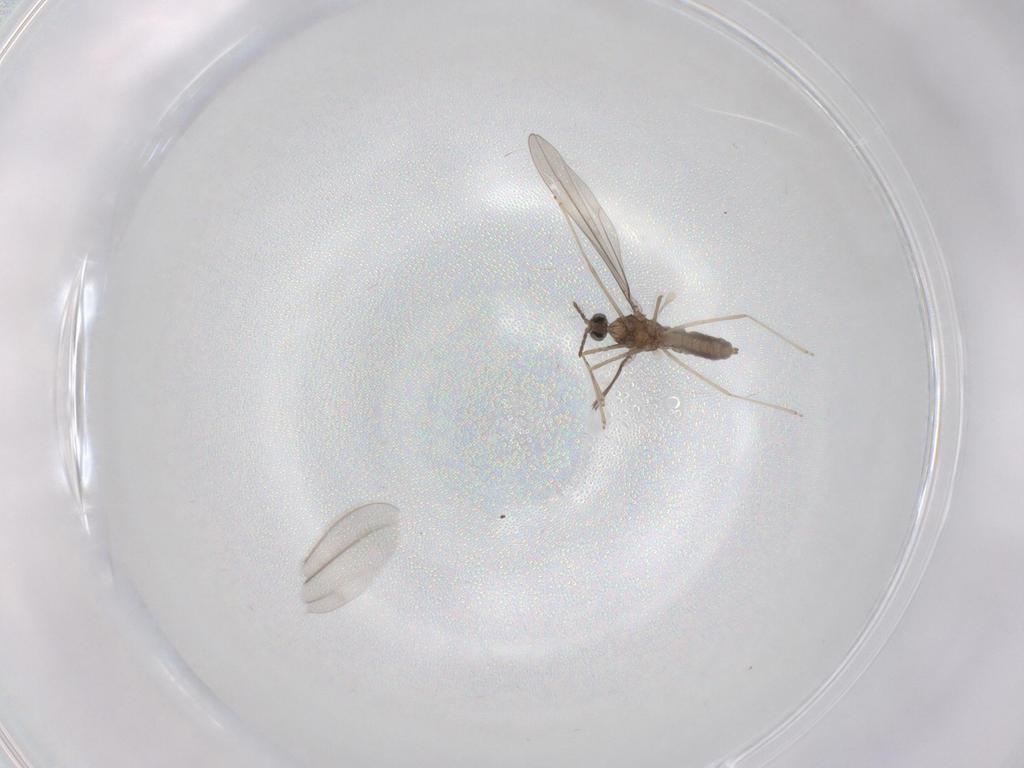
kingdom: Animalia
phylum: Arthropoda
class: Insecta
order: Diptera
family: Cecidomyiidae
